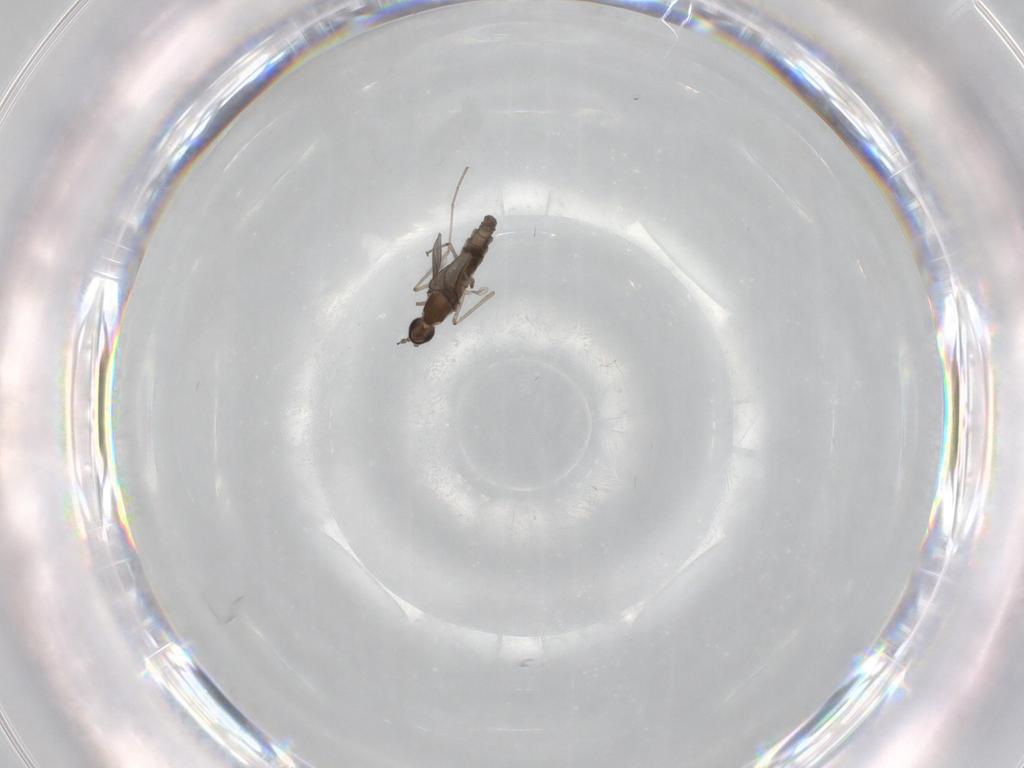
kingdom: Animalia
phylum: Arthropoda
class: Insecta
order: Diptera
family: Cecidomyiidae
